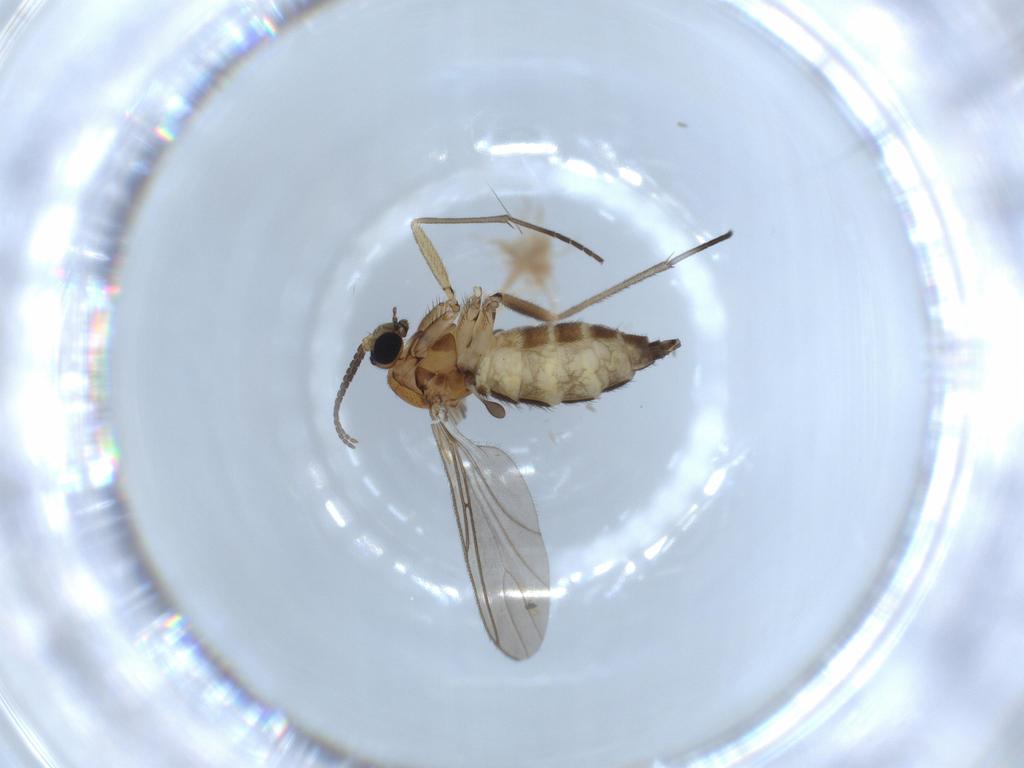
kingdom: Animalia
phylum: Arthropoda
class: Insecta
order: Diptera
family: Sciaridae
